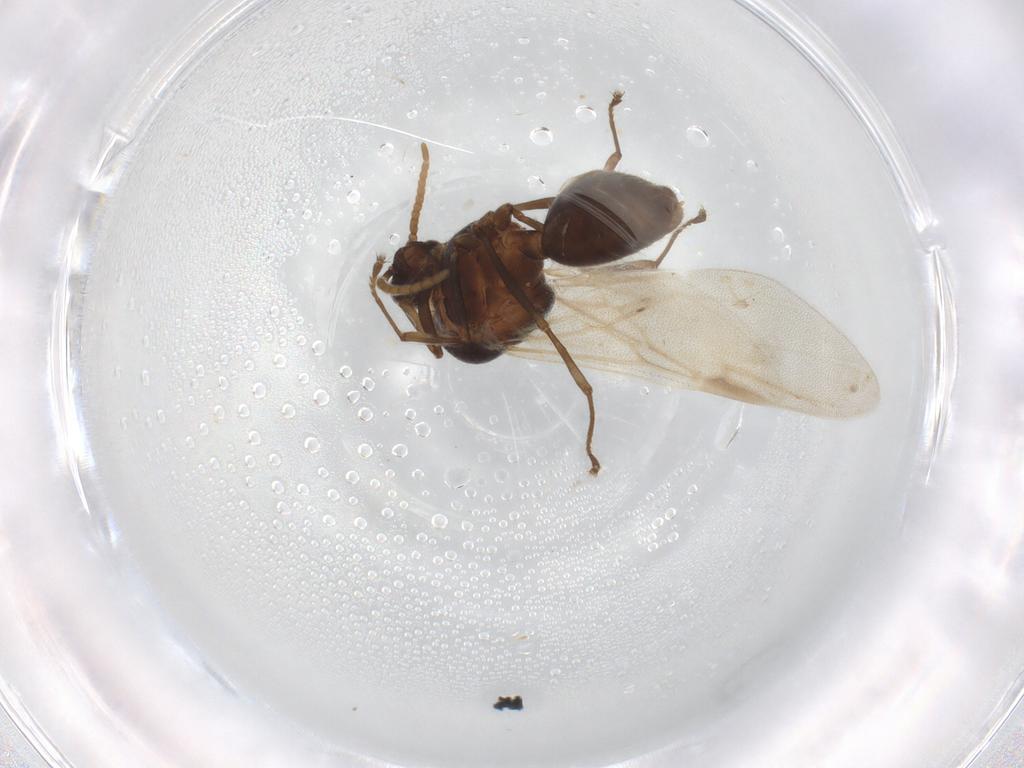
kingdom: Animalia
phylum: Arthropoda
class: Insecta
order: Hymenoptera
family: Formicidae
